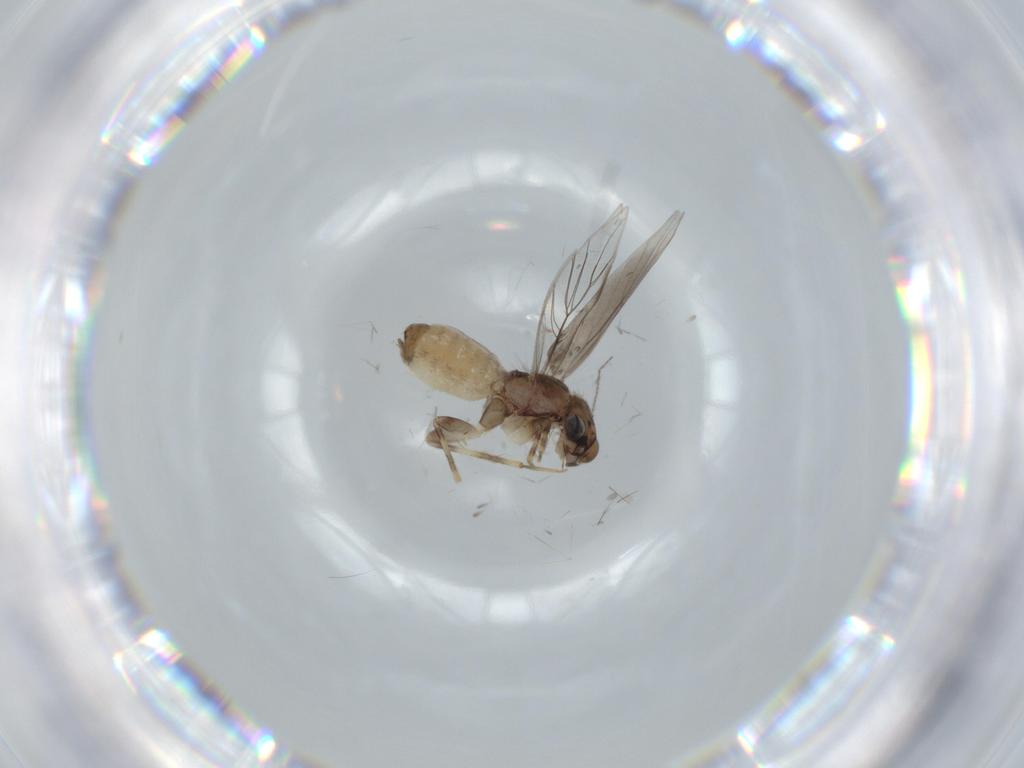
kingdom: Animalia
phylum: Arthropoda
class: Insecta
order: Psocodea
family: Lepidopsocidae
